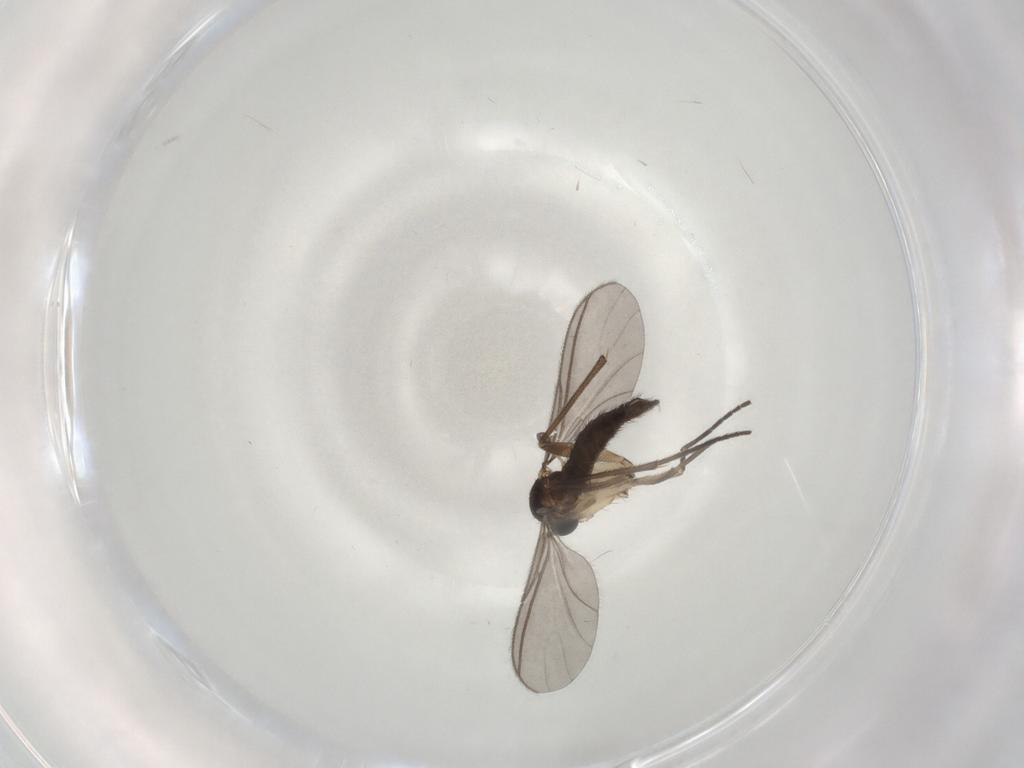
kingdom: Animalia
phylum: Arthropoda
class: Insecta
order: Diptera
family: Sciaridae
